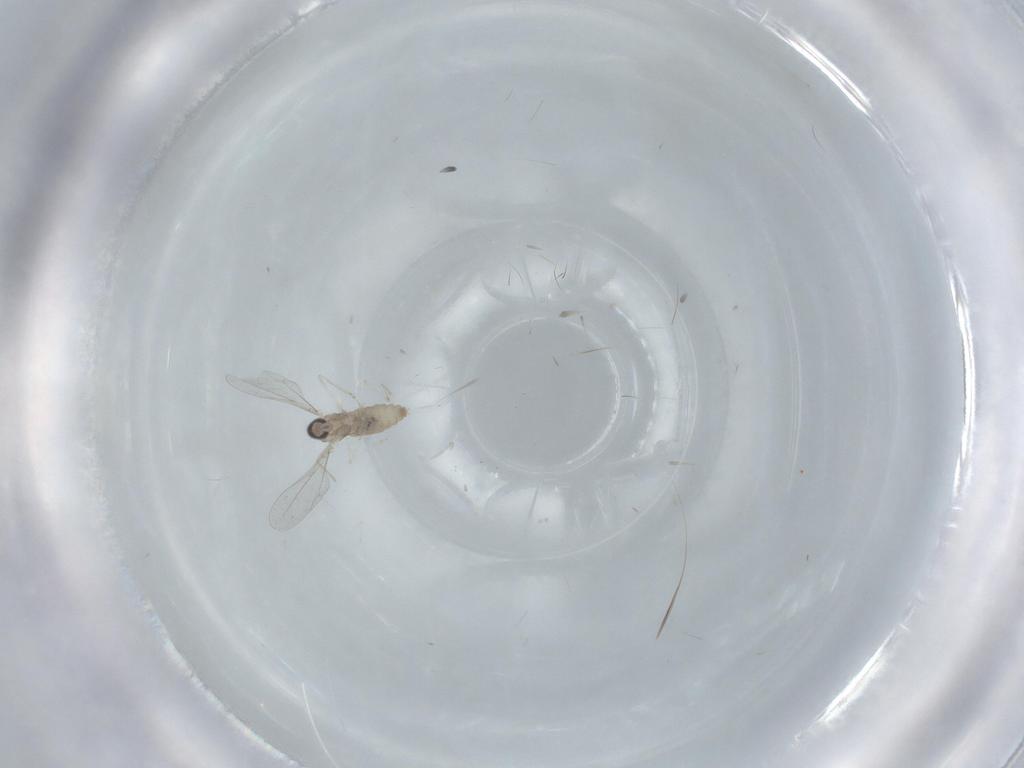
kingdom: Animalia
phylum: Arthropoda
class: Insecta
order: Diptera
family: Cecidomyiidae
